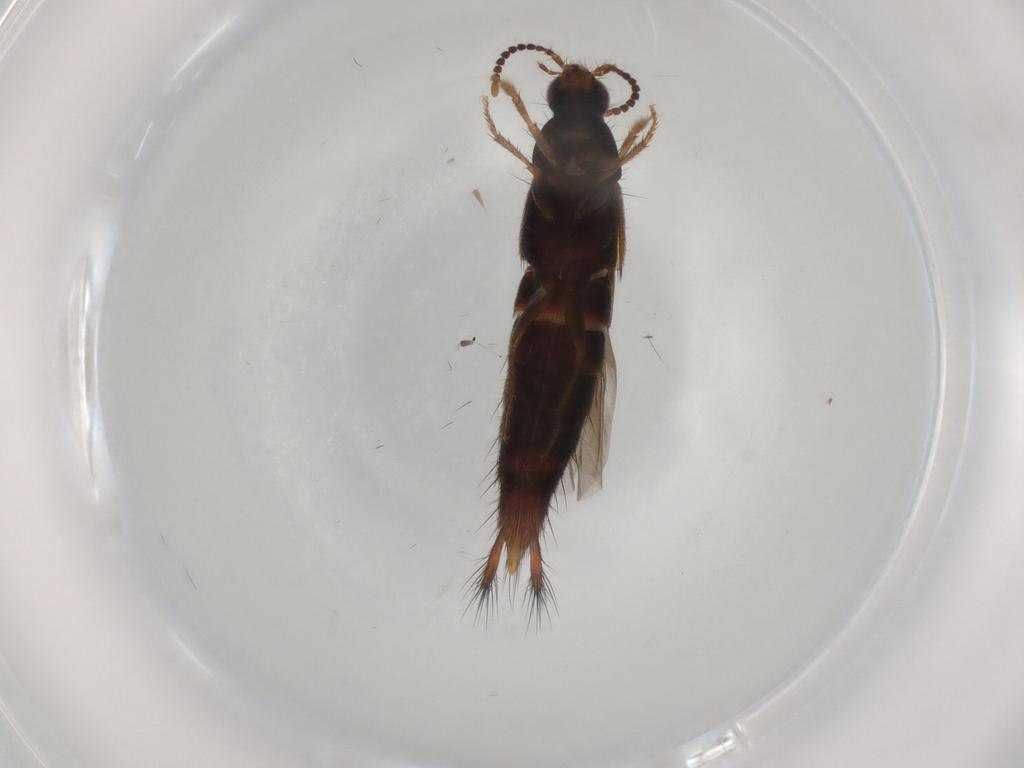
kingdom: Animalia
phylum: Arthropoda
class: Insecta
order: Coleoptera
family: Staphylinidae
